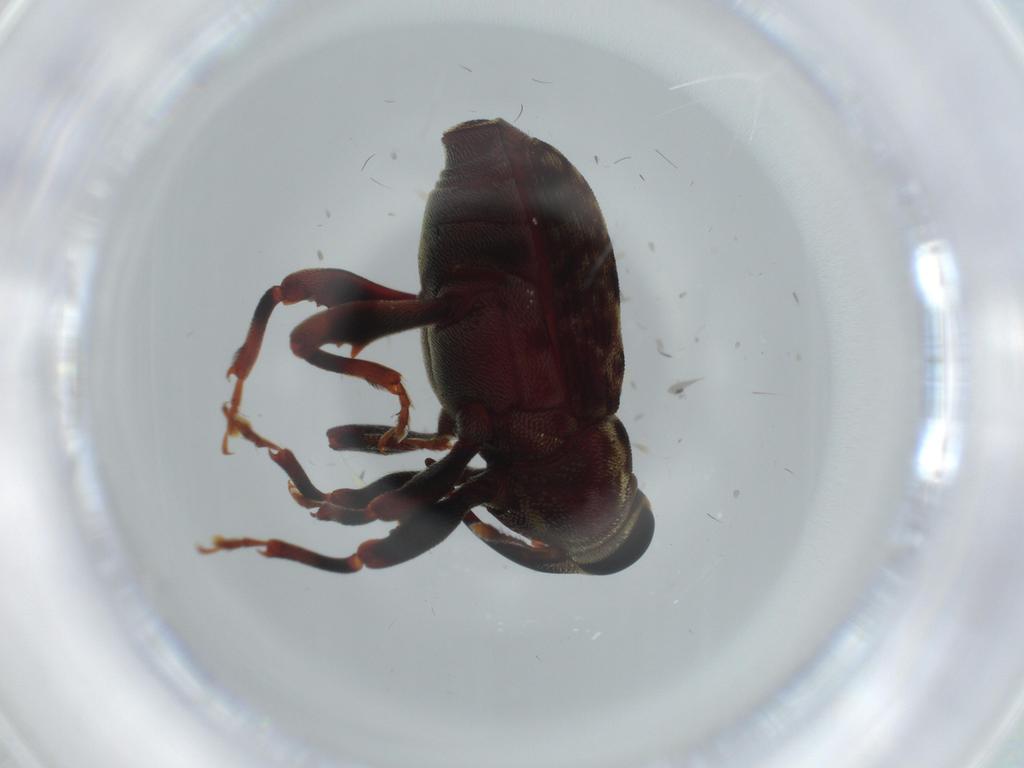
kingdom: Animalia
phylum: Arthropoda
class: Insecta
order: Coleoptera
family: Curculionidae
